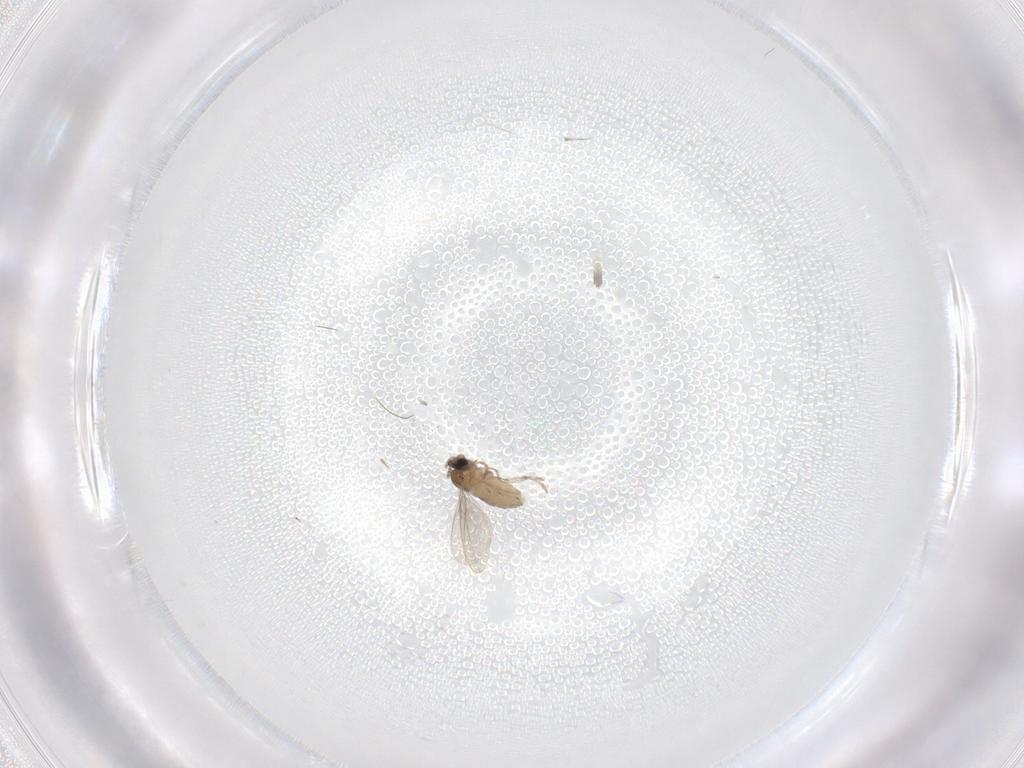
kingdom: Animalia
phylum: Arthropoda
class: Insecta
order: Diptera
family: Cecidomyiidae
